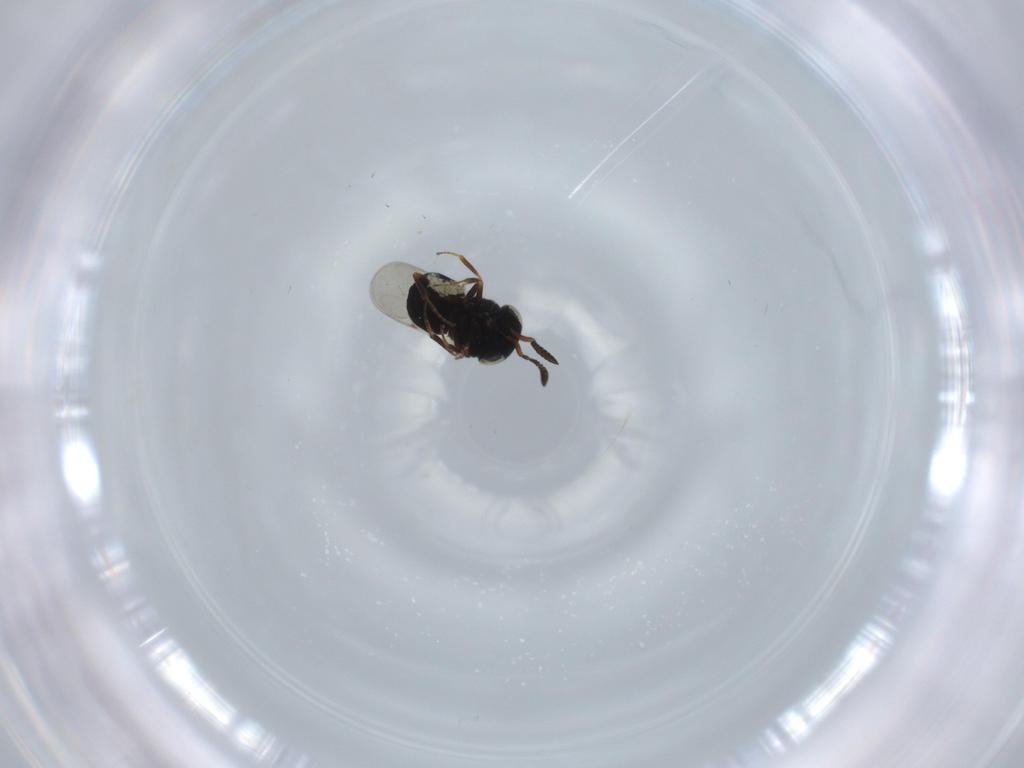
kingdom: Animalia
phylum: Arthropoda
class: Insecta
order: Hymenoptera
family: Scelionidae
